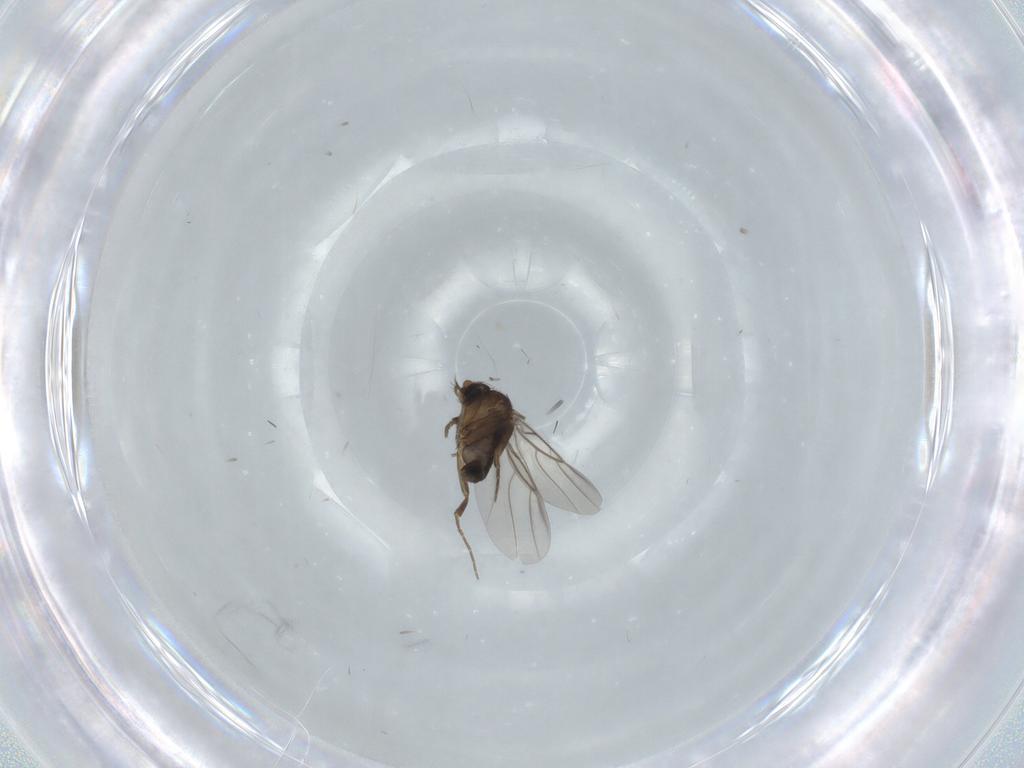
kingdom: Animalia
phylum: Arthropoda
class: Insecta
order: Diptera
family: Phoridae
